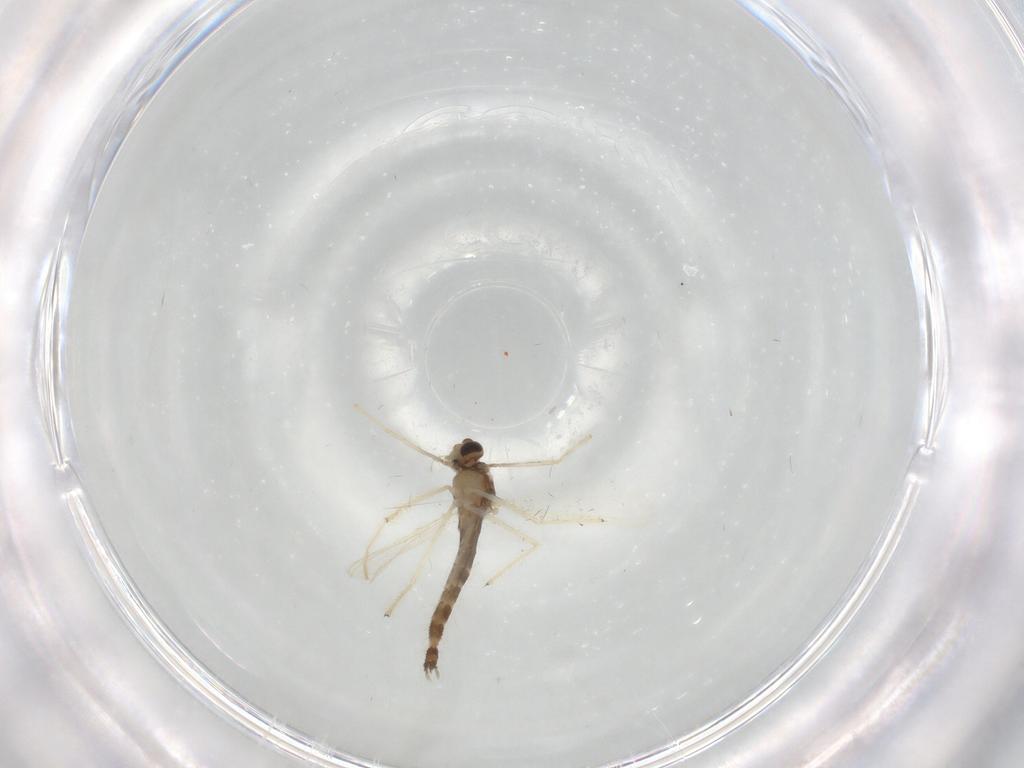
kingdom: Animalia
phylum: Arthropoda
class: Insecta
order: Diptera
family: Chironomidae
